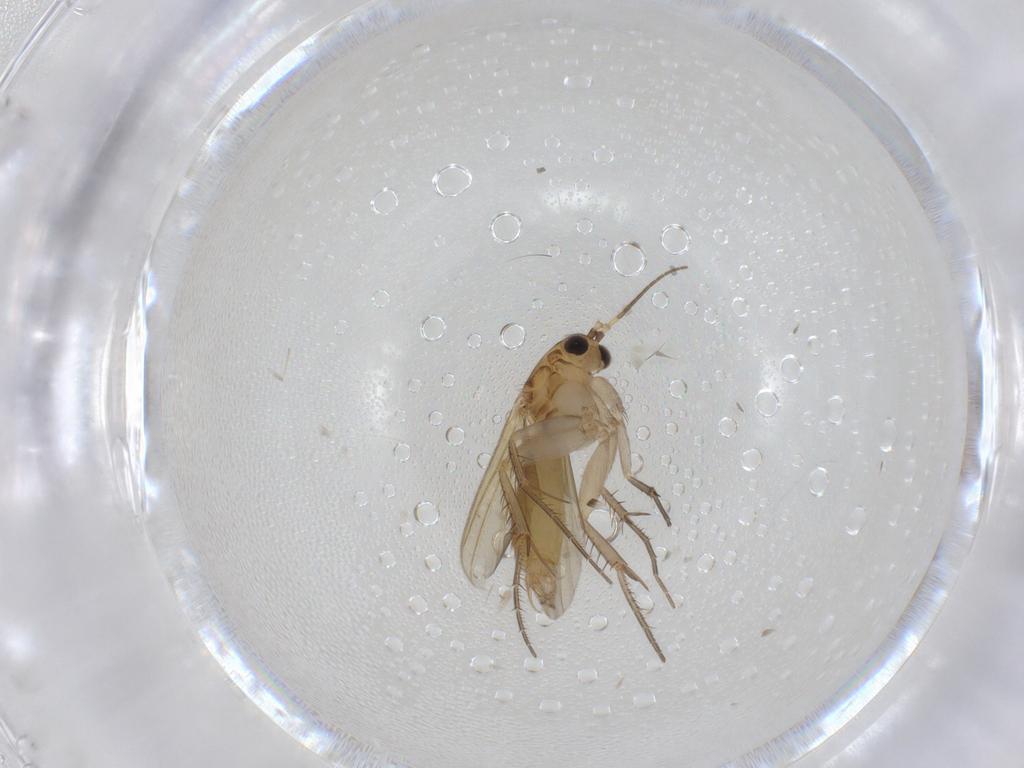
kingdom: Animalia
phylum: Arthropoda
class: Insecta
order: Diptera
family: Mycetophilidae
